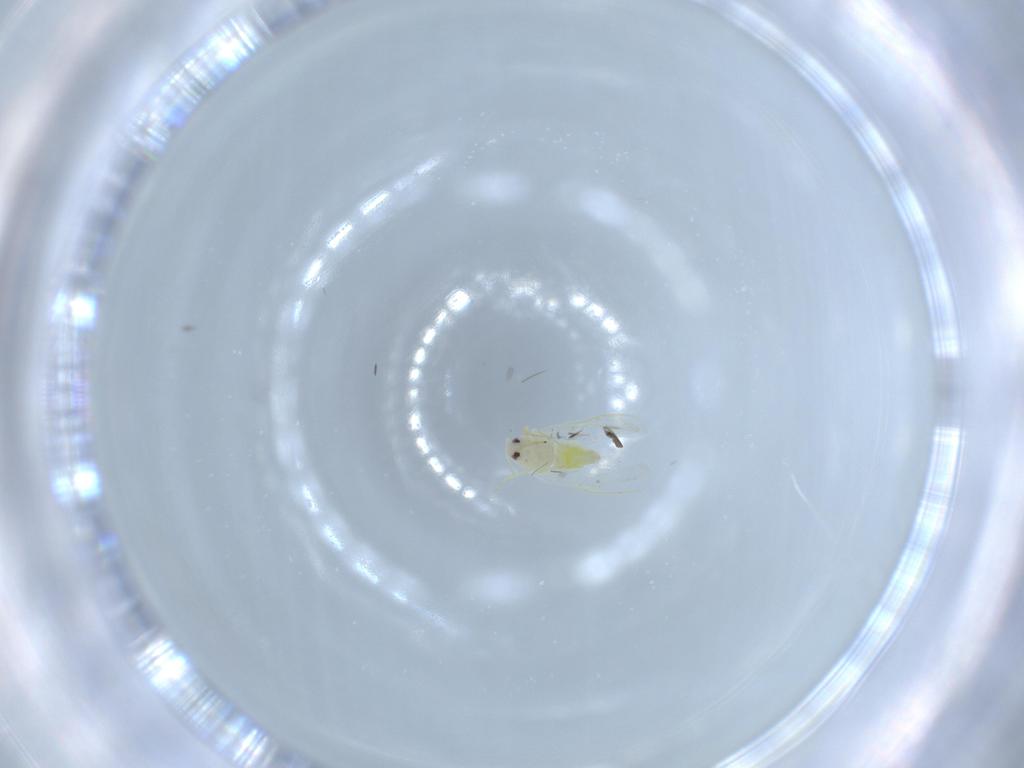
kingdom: Animalia
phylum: Arthropoda
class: Insecta
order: Hemiptera
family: Aleyrodidae
